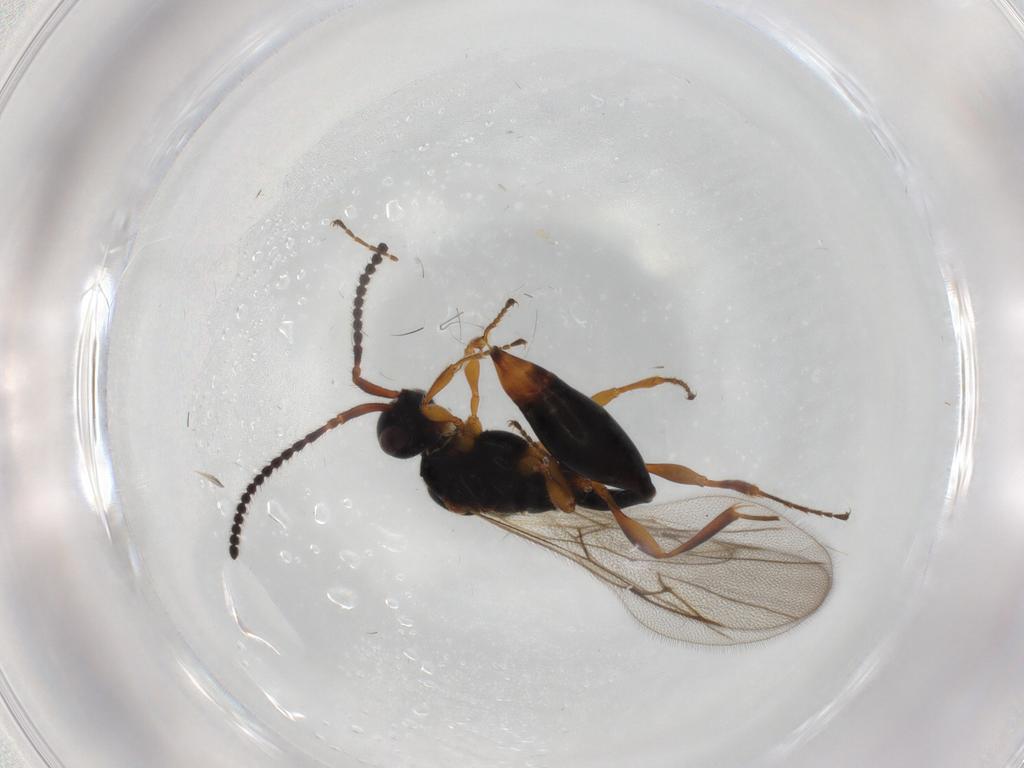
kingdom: Animalia
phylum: Arthropoda
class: Insecta
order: Hymenoptera
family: Diapriidae
